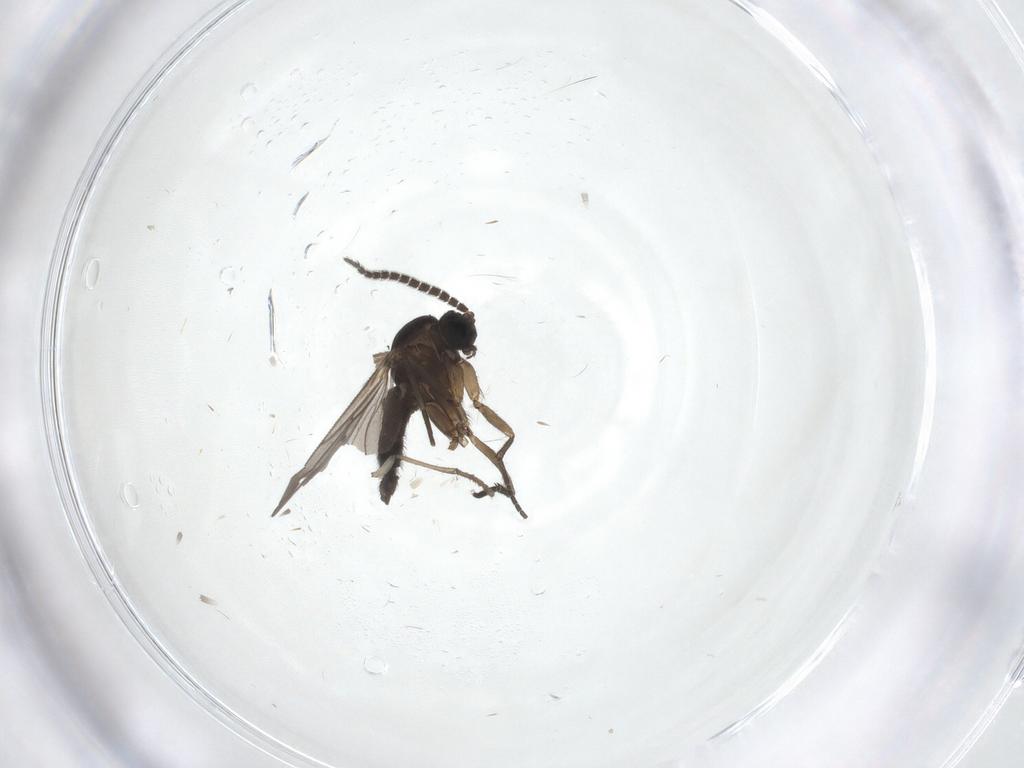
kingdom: Animalia
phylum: Arthropoda
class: Insecta
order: Diptera
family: Sciaridae
